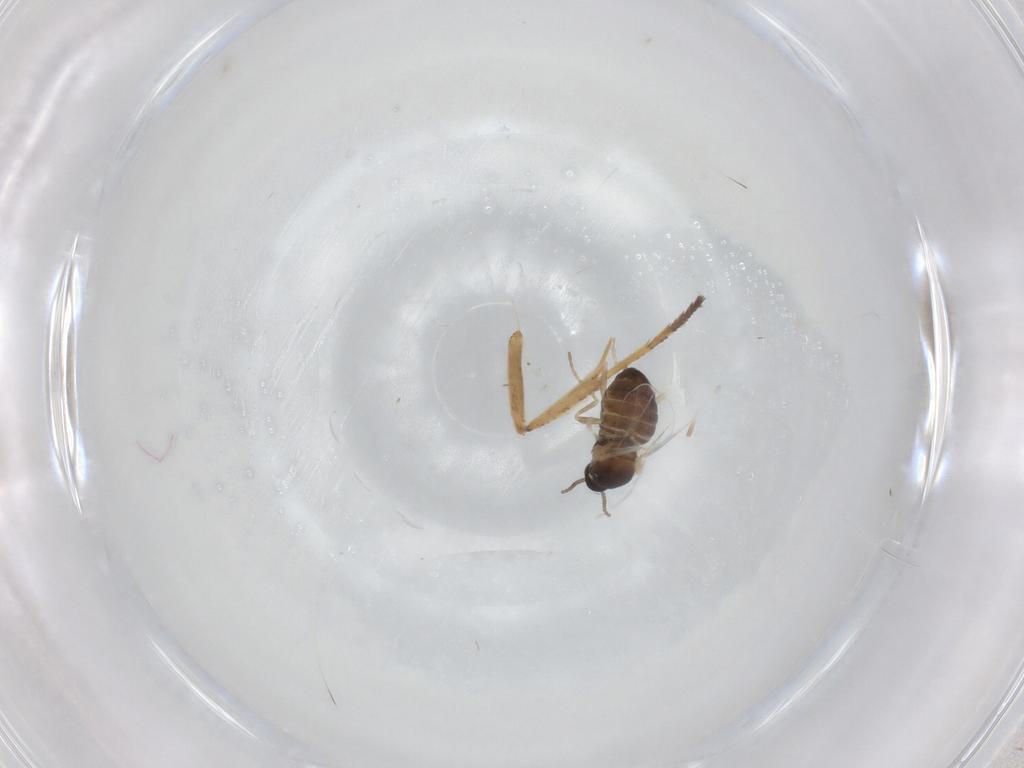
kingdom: Animalia
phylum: Arthropoda
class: Insecta
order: Diptera
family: Cecidomyiidae
